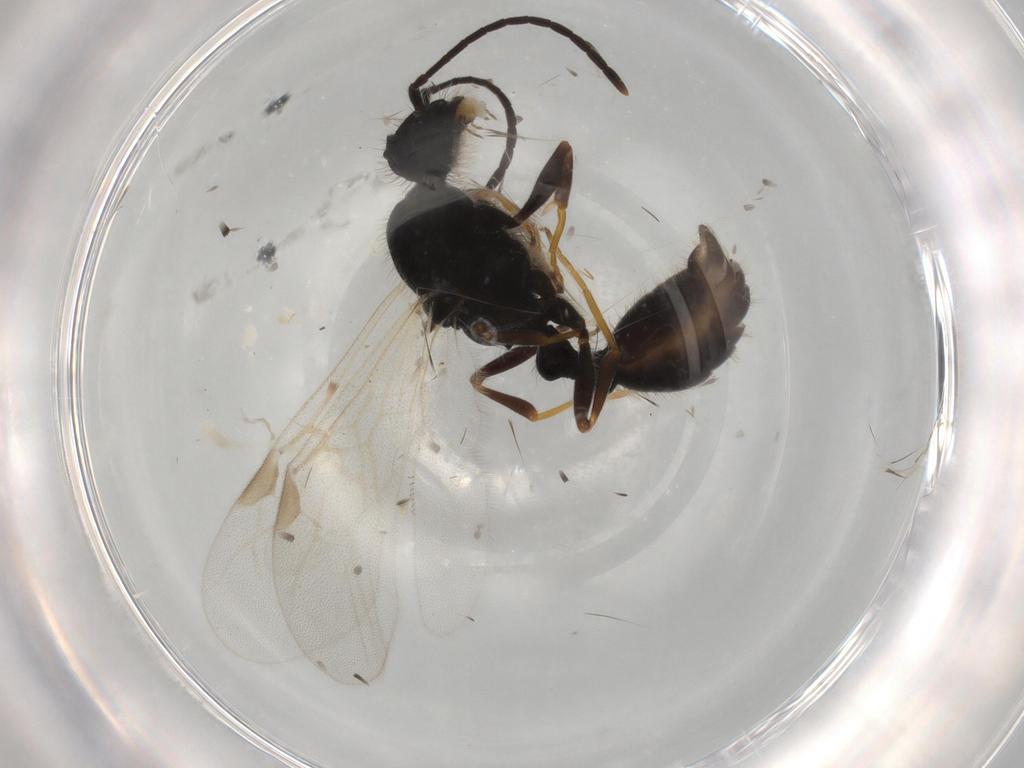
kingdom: Animalia
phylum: Arthropoda
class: Insecta
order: Hymenoptera
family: Formicidae
